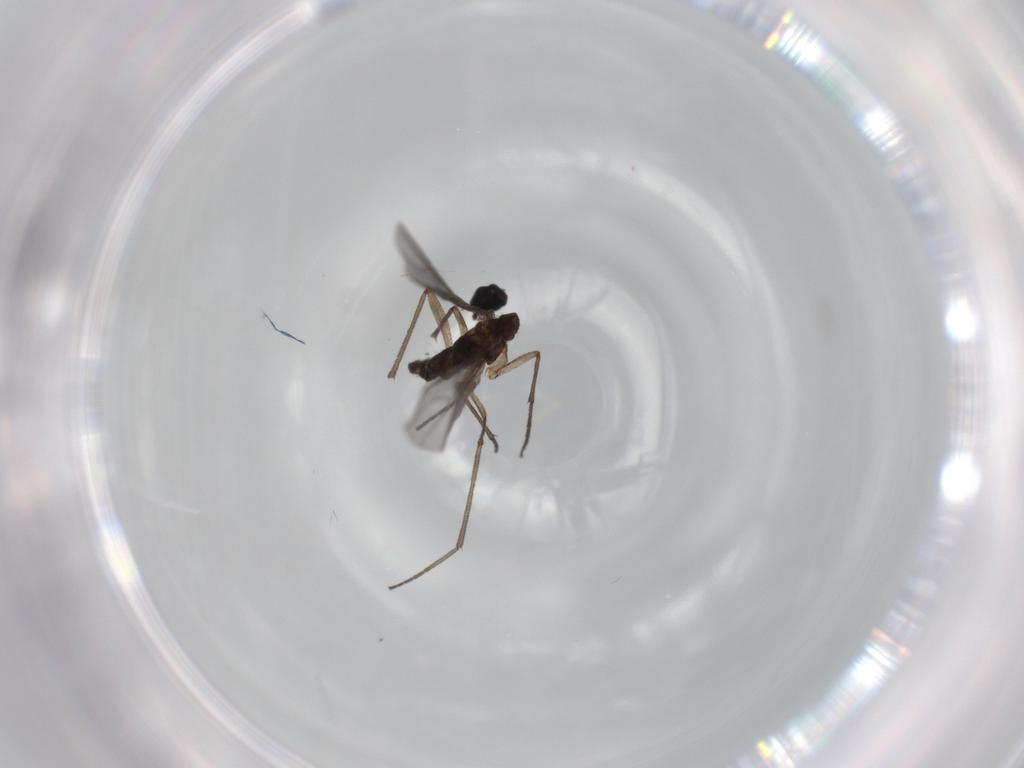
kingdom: Animalia
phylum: Arthropoda
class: Insecta
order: Diptera
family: Sciaridae
